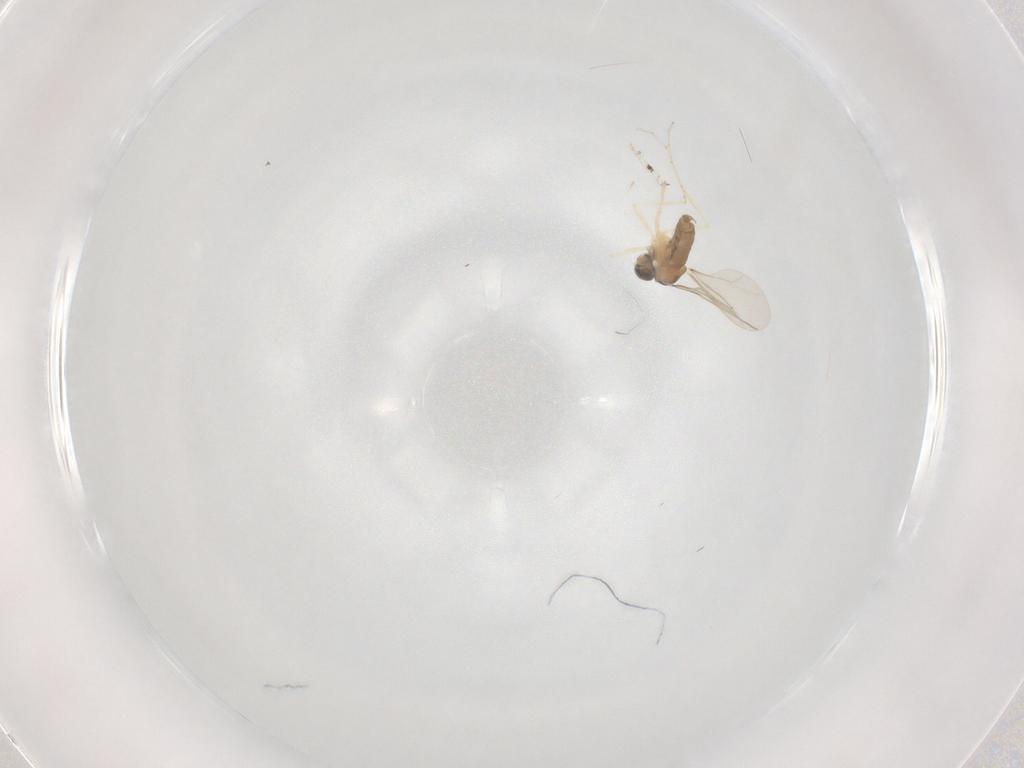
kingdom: Animalia
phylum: Arthropoda
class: Insecta
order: Diptera
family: Cecidomyiidae
